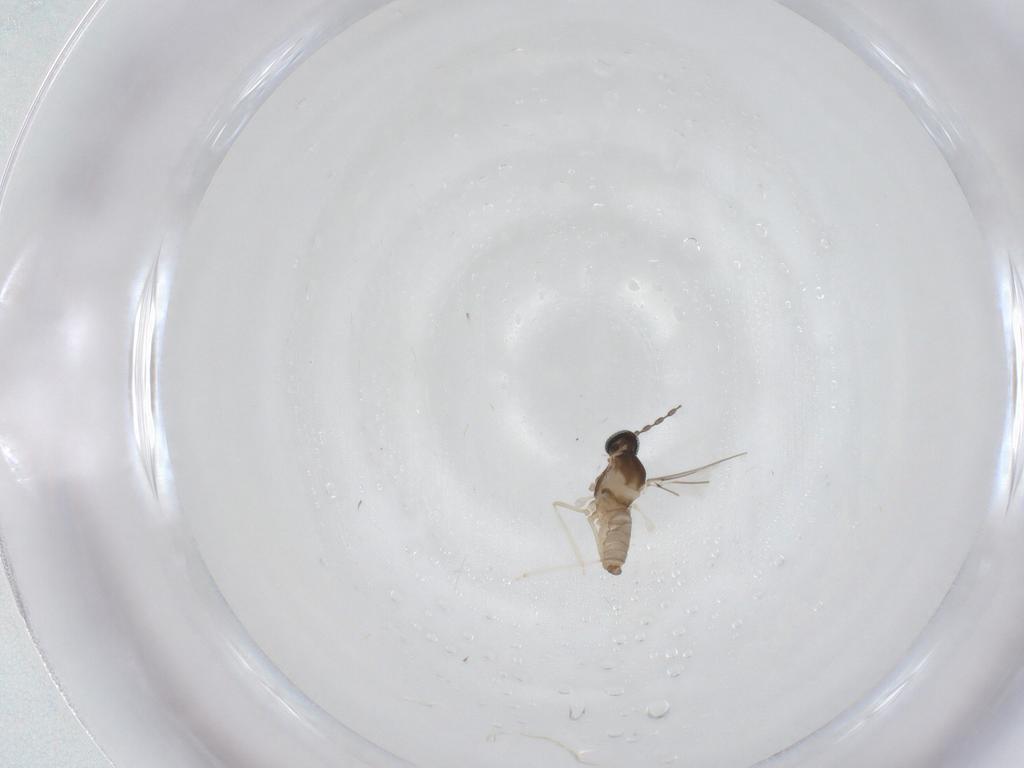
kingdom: Animalia
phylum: Arthropoda
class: Insecta
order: Diptera
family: Cecidomyiidae
